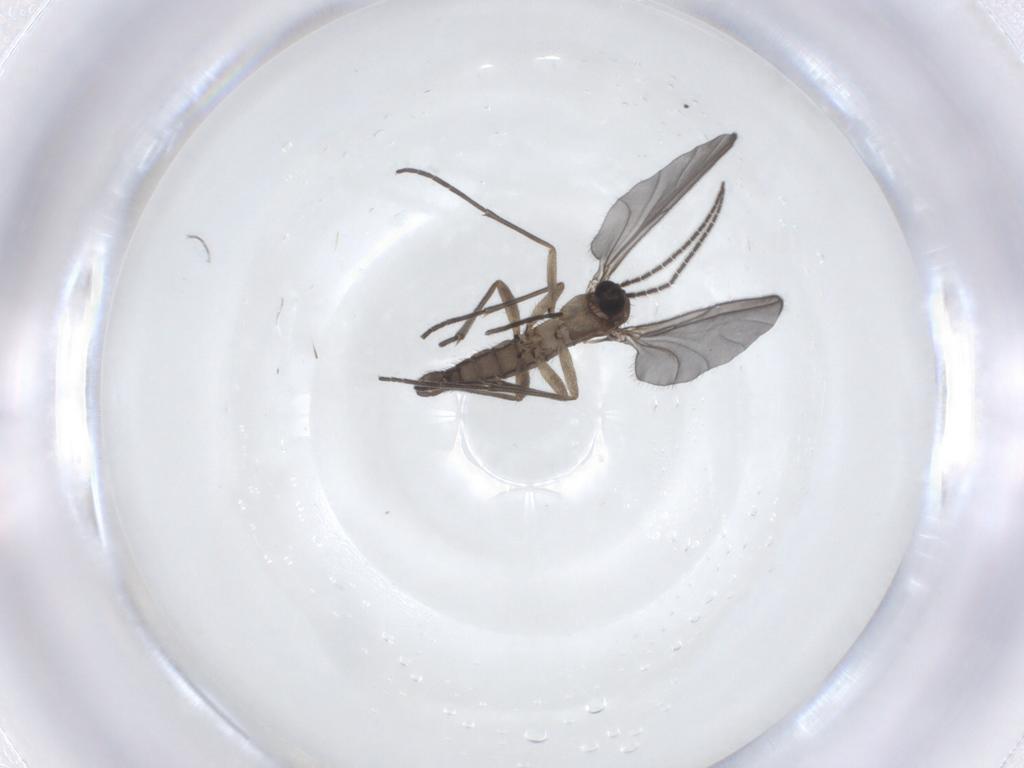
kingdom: Animalia
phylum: Arthropoda
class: Insecta
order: Diptera
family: Sciaridae
